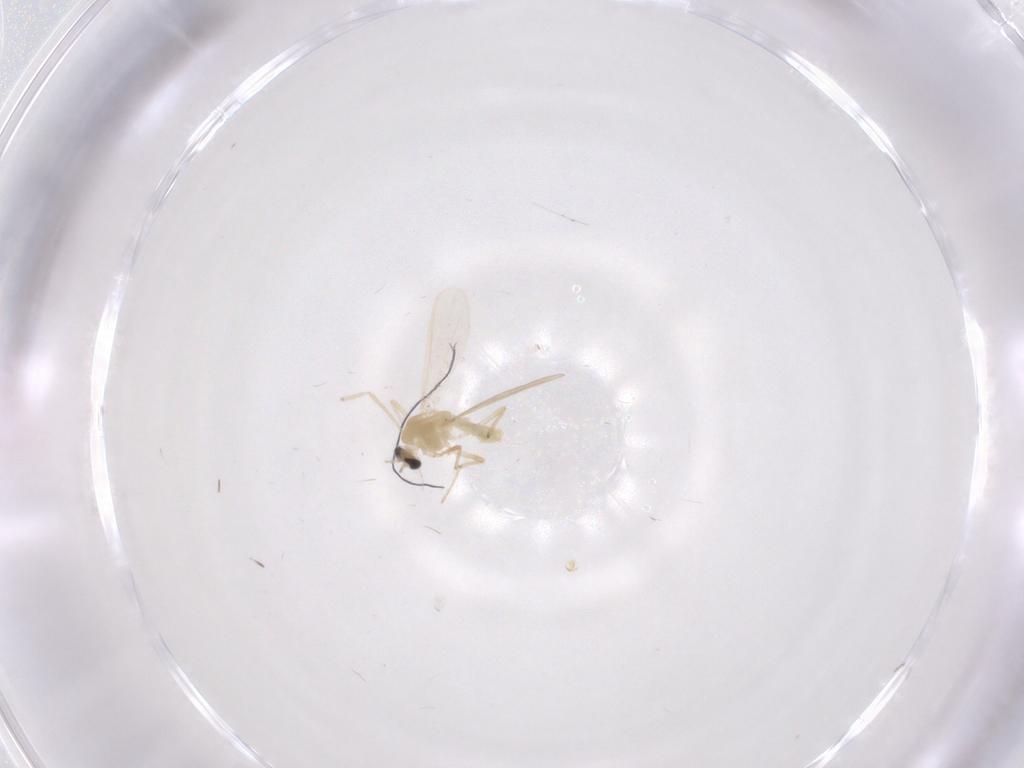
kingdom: Animalia
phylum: Arthropoda
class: Insecta
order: Diptera
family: Chironomidae
